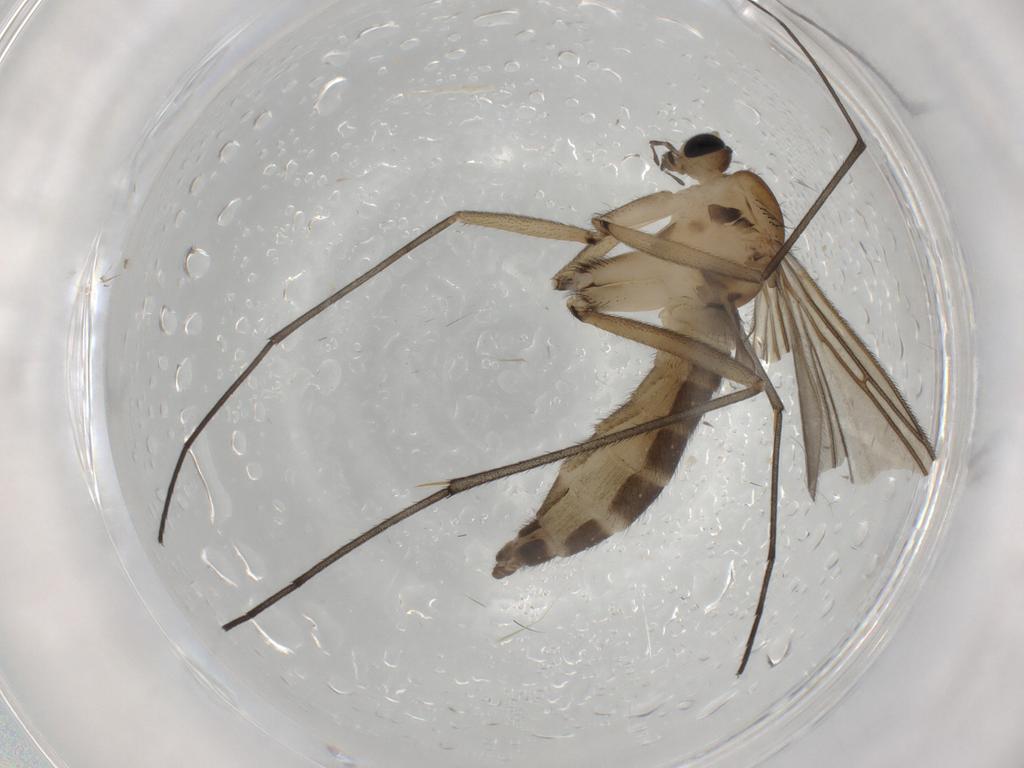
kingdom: Animalia
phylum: Arthropoda
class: Insecta
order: Diptera
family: Sciaridae
